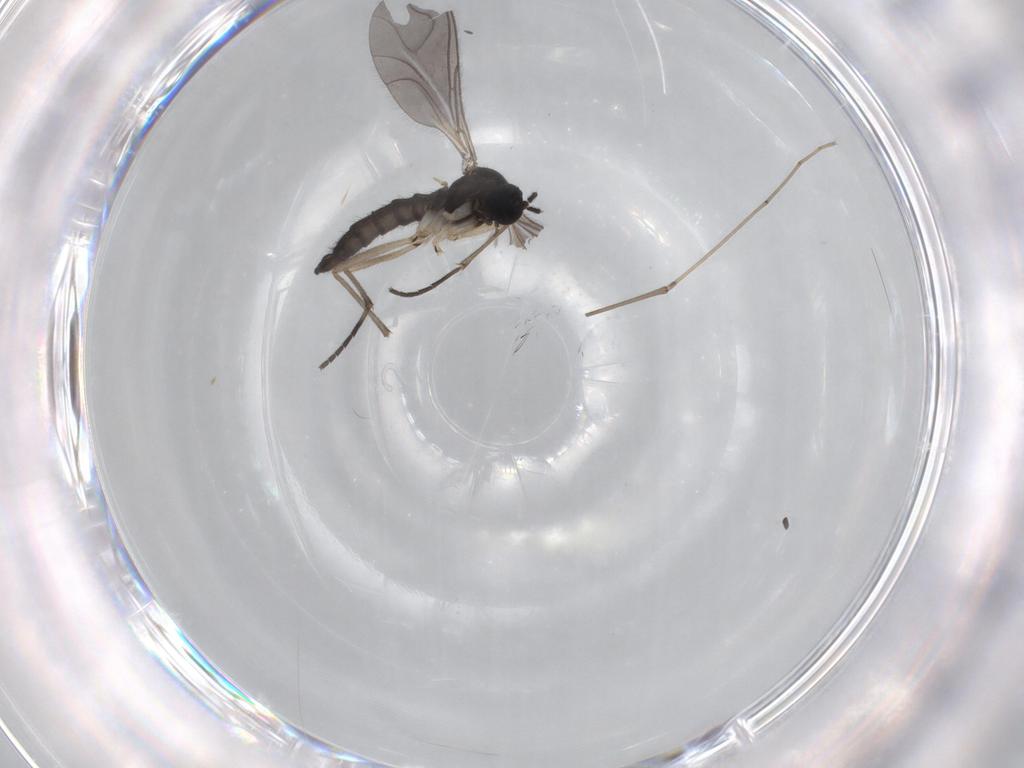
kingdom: Animalia
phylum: Arthropoda
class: Insecta
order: Diptera
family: Sciaridae
